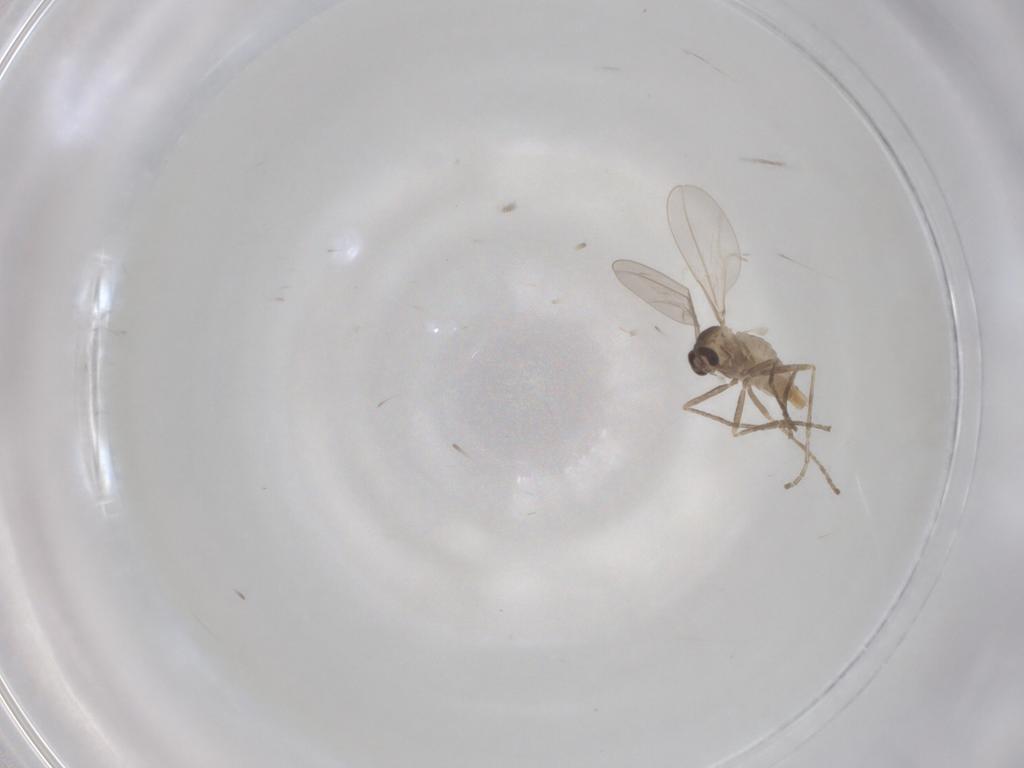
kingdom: Animalia
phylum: Arthropoda
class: Insecta
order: Diptera
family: Cecidomyiidae
